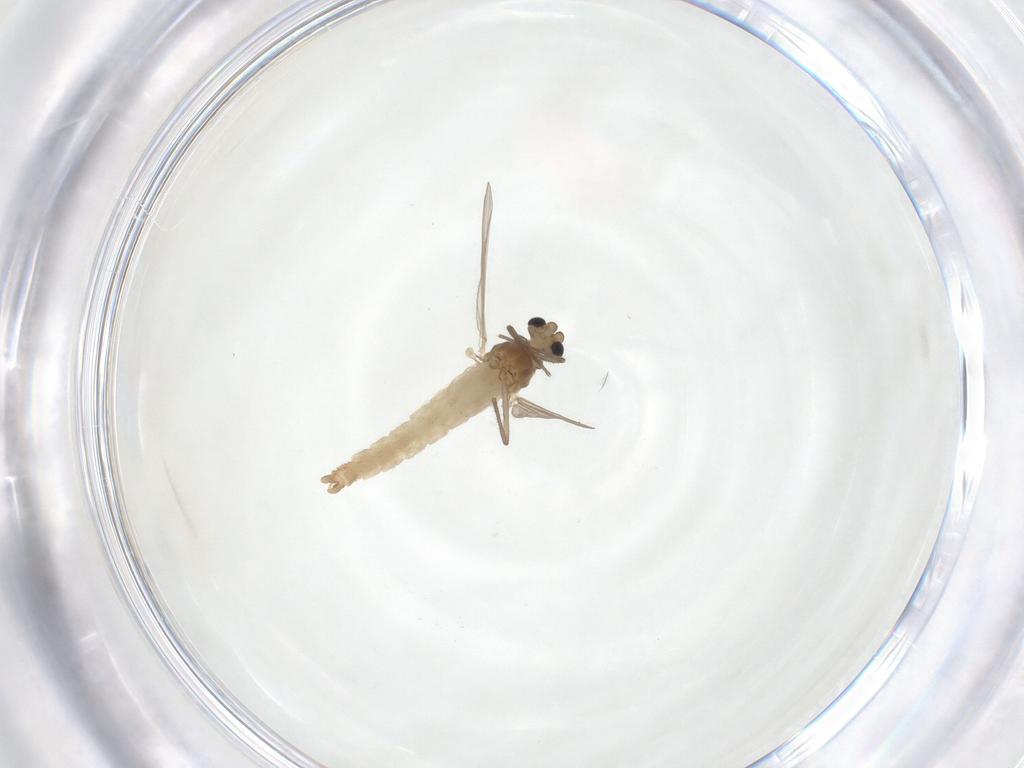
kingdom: Animalia
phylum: Arthropoda
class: Insecta
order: Diptera
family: Chironomidae
